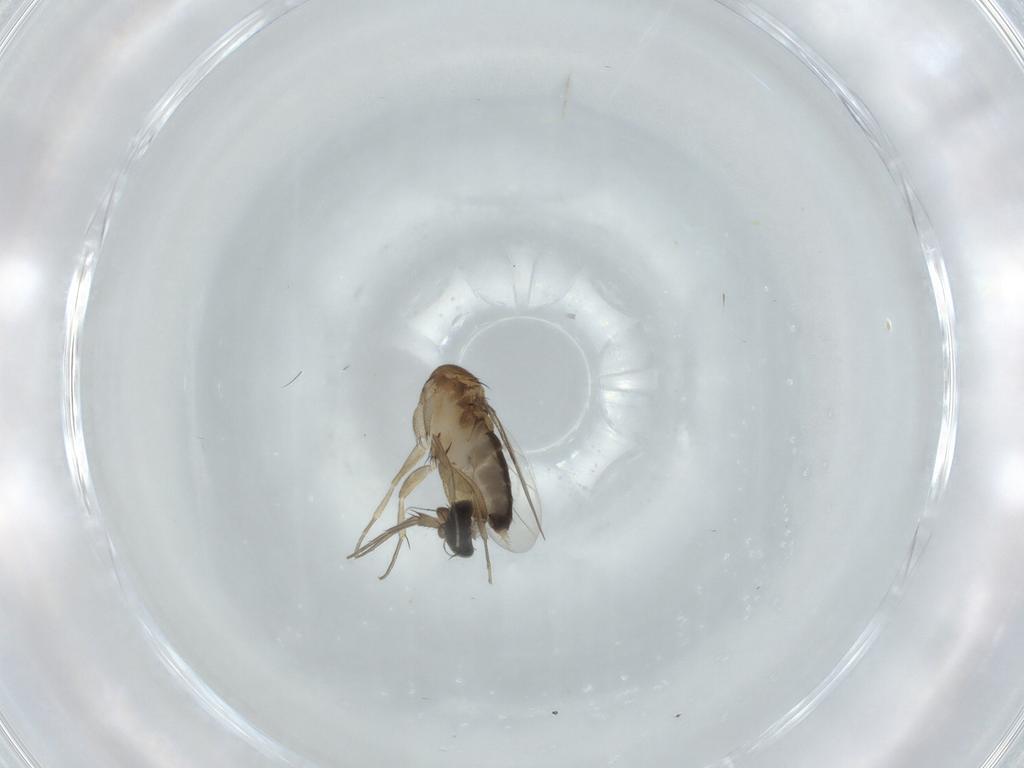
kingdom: Animalia
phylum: Arthropoda
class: Insecta
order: Diptera
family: Phoridae
